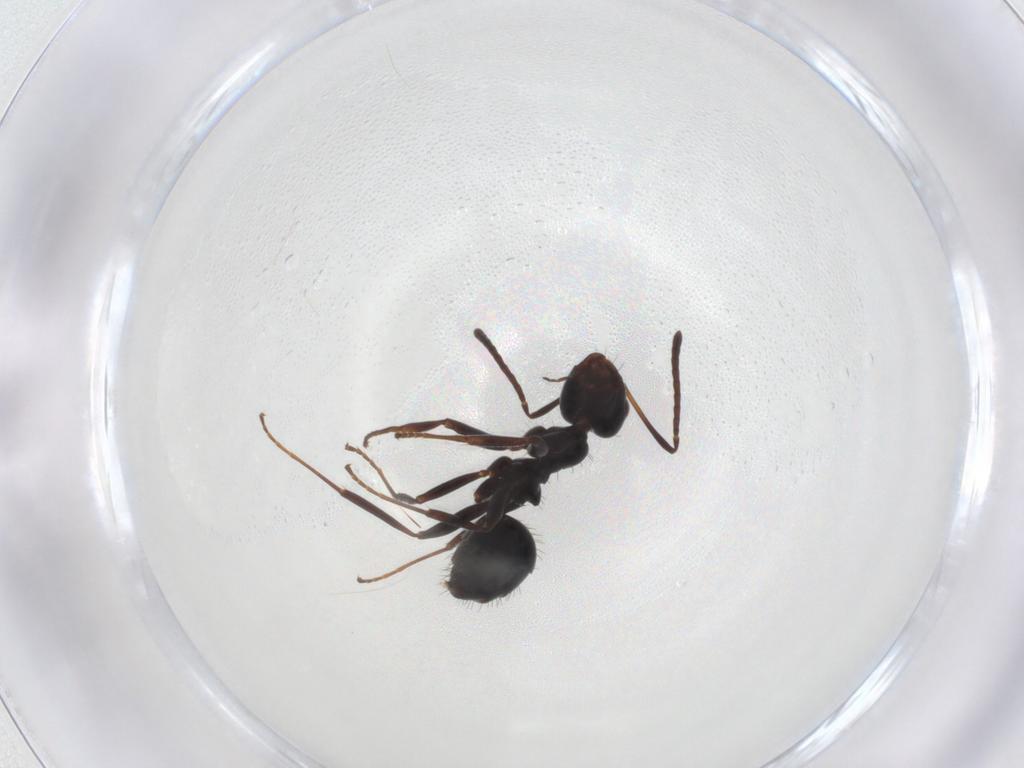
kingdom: Animalia
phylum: Arthropoda
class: Insecta
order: Hymenoptera
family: Formicidae
